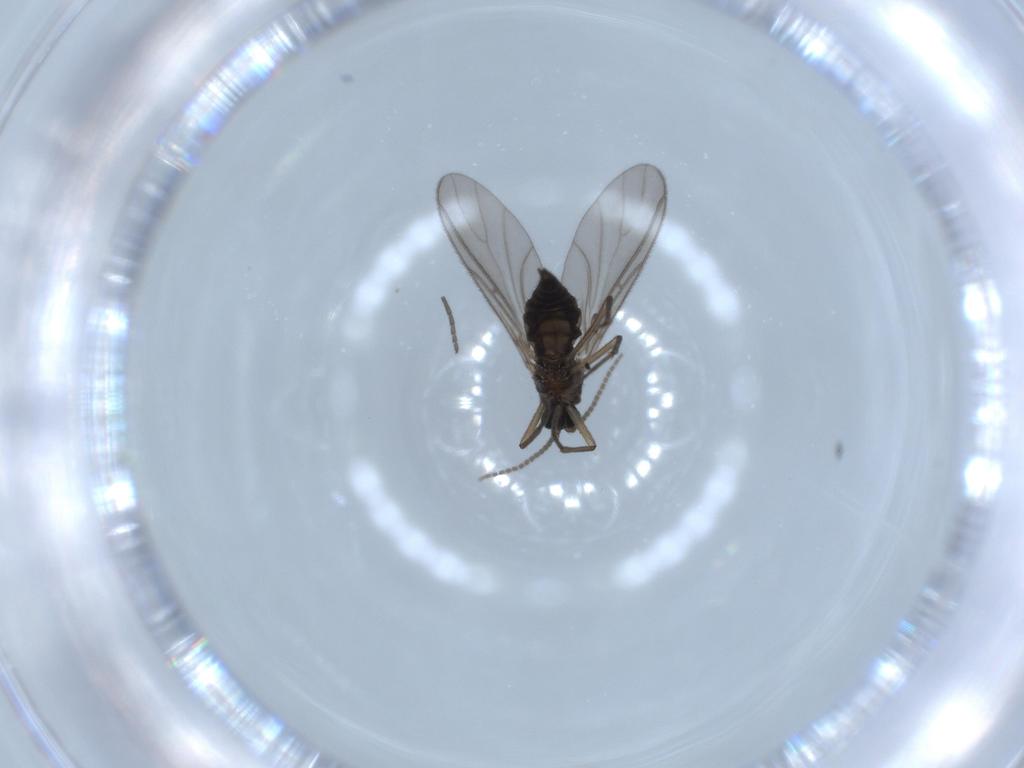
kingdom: Animalia
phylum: Arthropoda
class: Insecta
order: Diptera
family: Sciaridae
